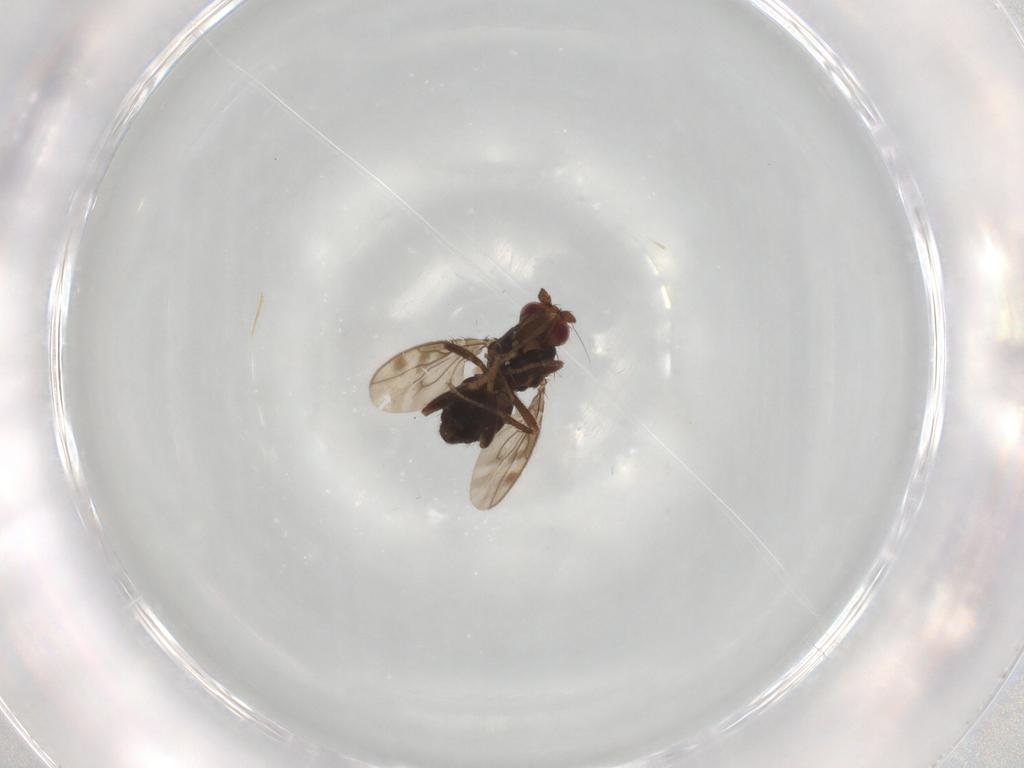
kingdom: Animalia
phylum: Arthropoda
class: Insecta
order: Diptera
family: Sphaeroceridae
